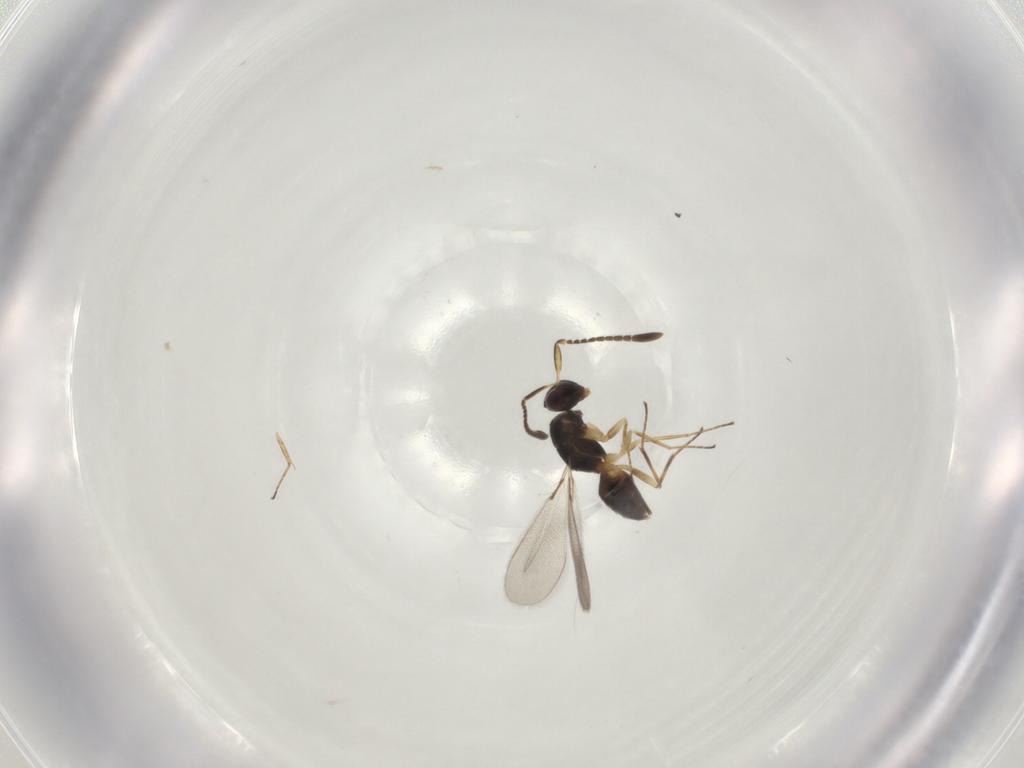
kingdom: Animalia
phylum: Arthropoda
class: Insecta
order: Hymenoptera
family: Mymaridae
